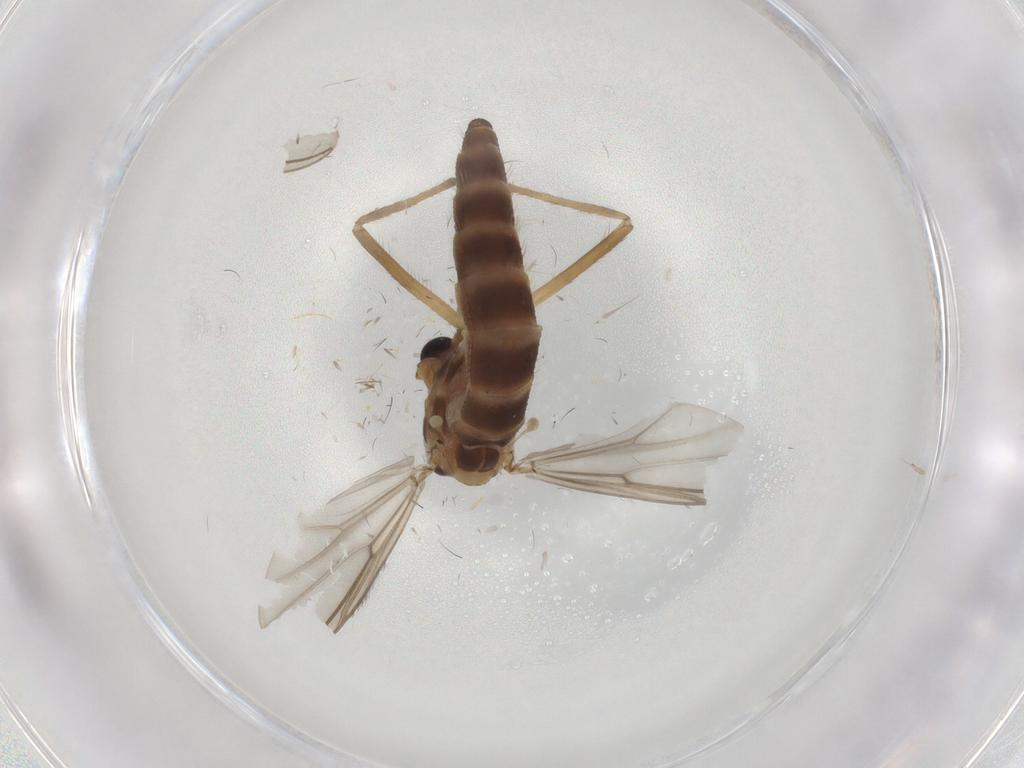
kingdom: Animalia
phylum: Arthropoda
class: Insecta
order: Diptera
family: Chironomidae
